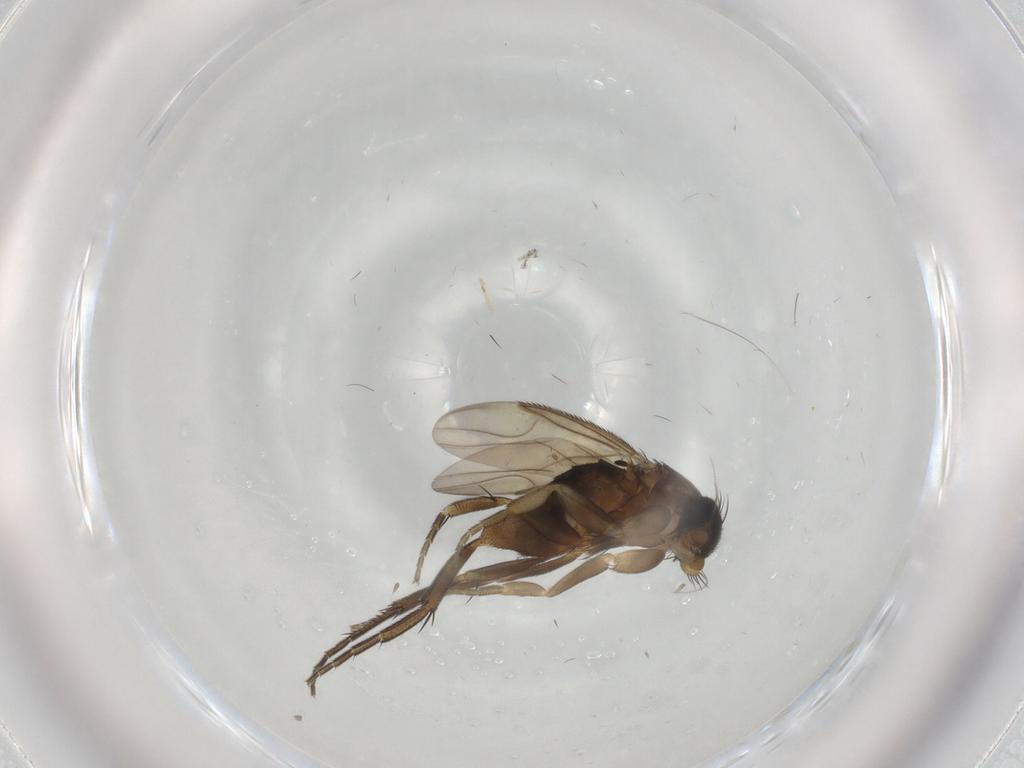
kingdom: Animalia
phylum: Arthropoda
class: Insecta
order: Diptera
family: Phoridae
